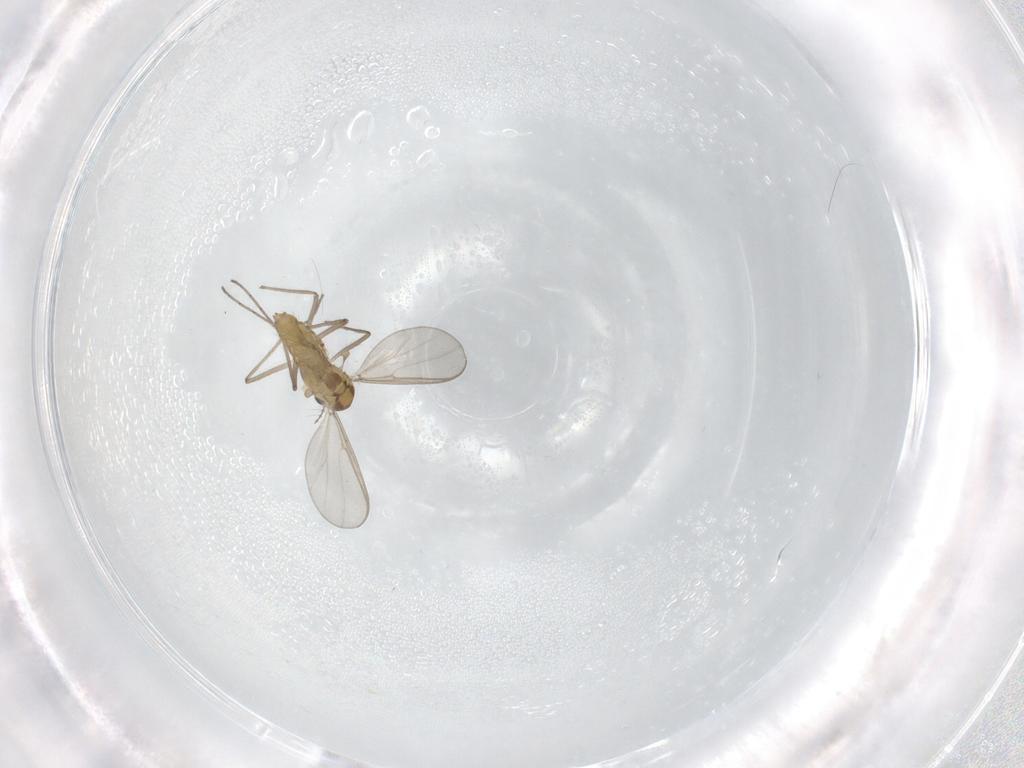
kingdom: Animalia
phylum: Arthropoda
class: Insecta
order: Diptera
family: Chironomidae
